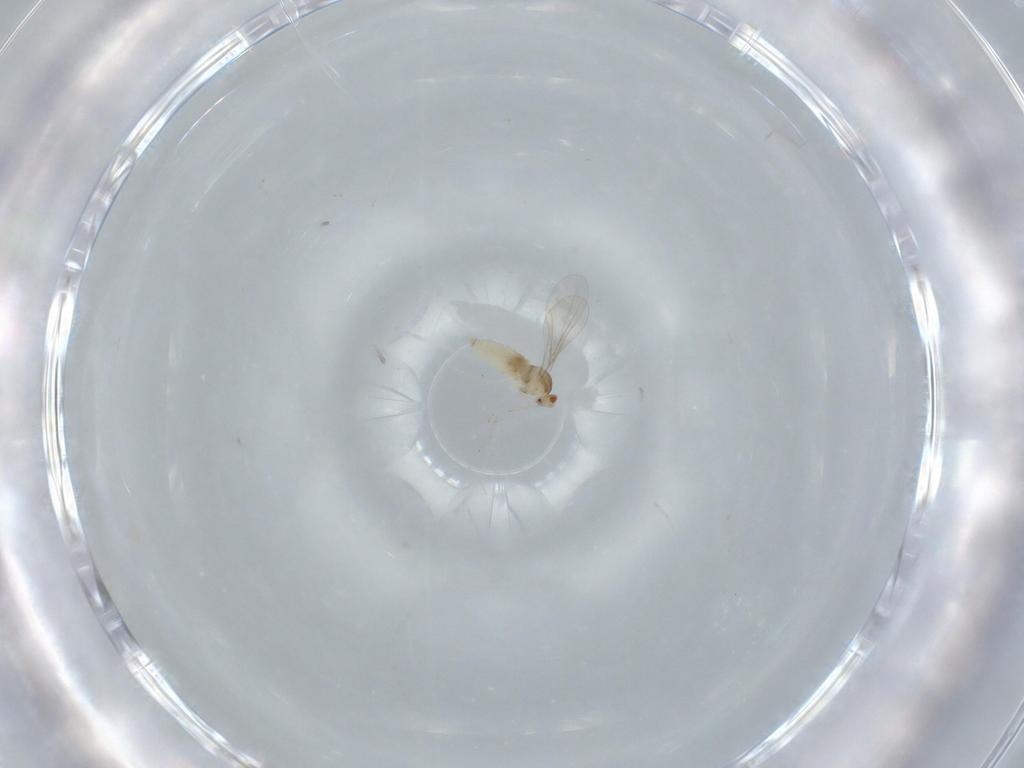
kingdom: Animalia
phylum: Arthropoda
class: Insecta
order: Diptera
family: Cecidomyiidae
